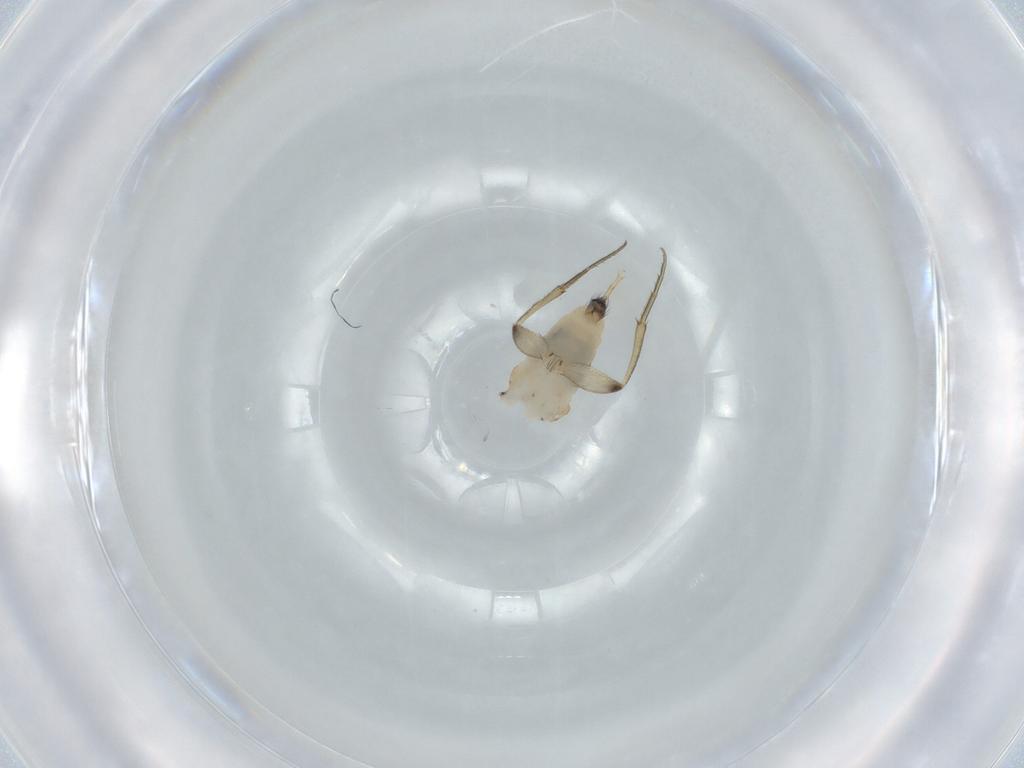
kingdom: Animalia
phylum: Arthropoda
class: Insecta
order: Diptera
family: Phoridae
